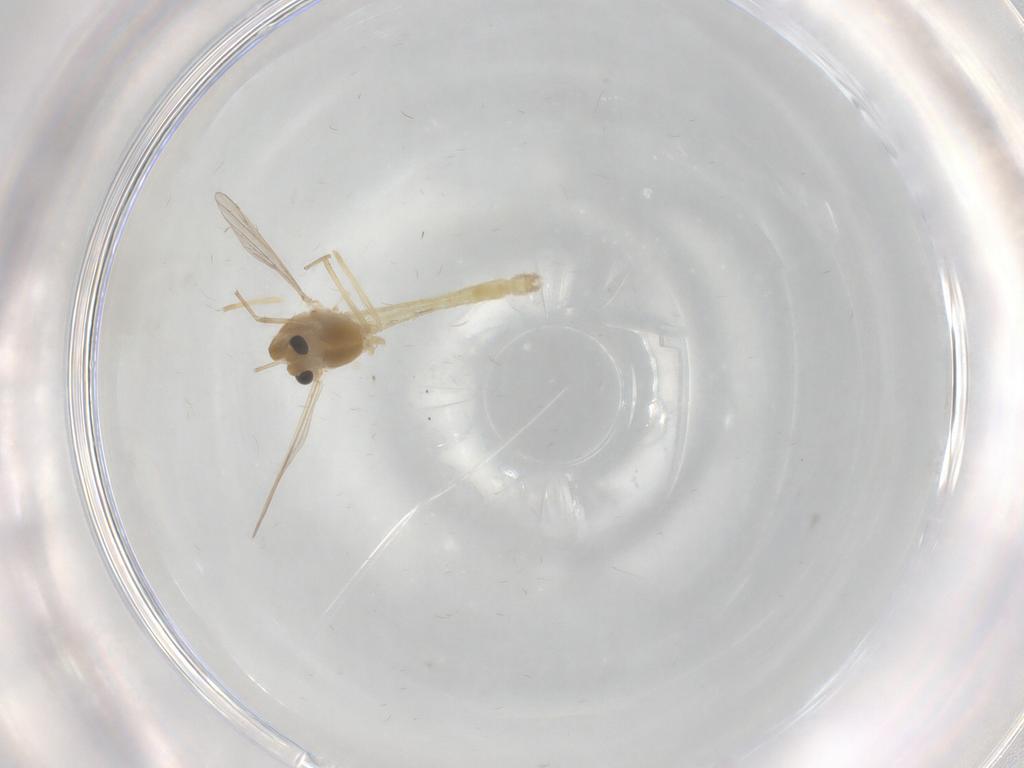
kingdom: Animalia
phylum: Arthropoda
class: Insecta
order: Diptera
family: Chironomidae
